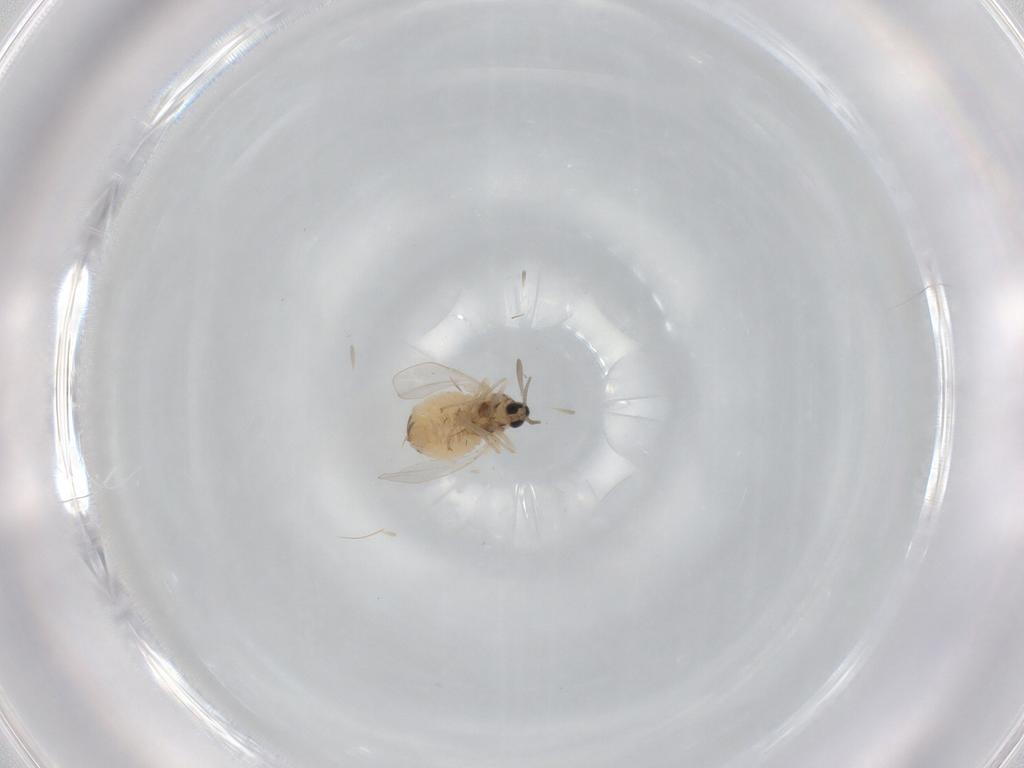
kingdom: Animalia
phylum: Arthropoda
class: Insecta
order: Diptera
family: Cecidomyiidae
